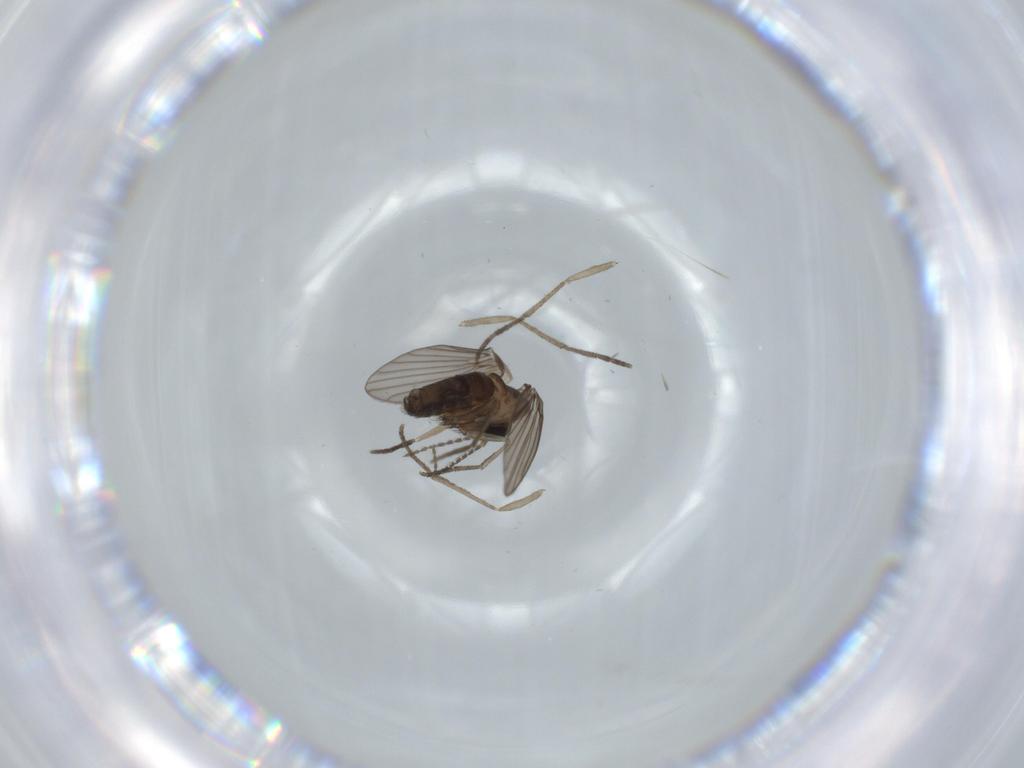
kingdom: Animalia
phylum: Arthropoda
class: Insecta
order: Diptera
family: Psychodidae
